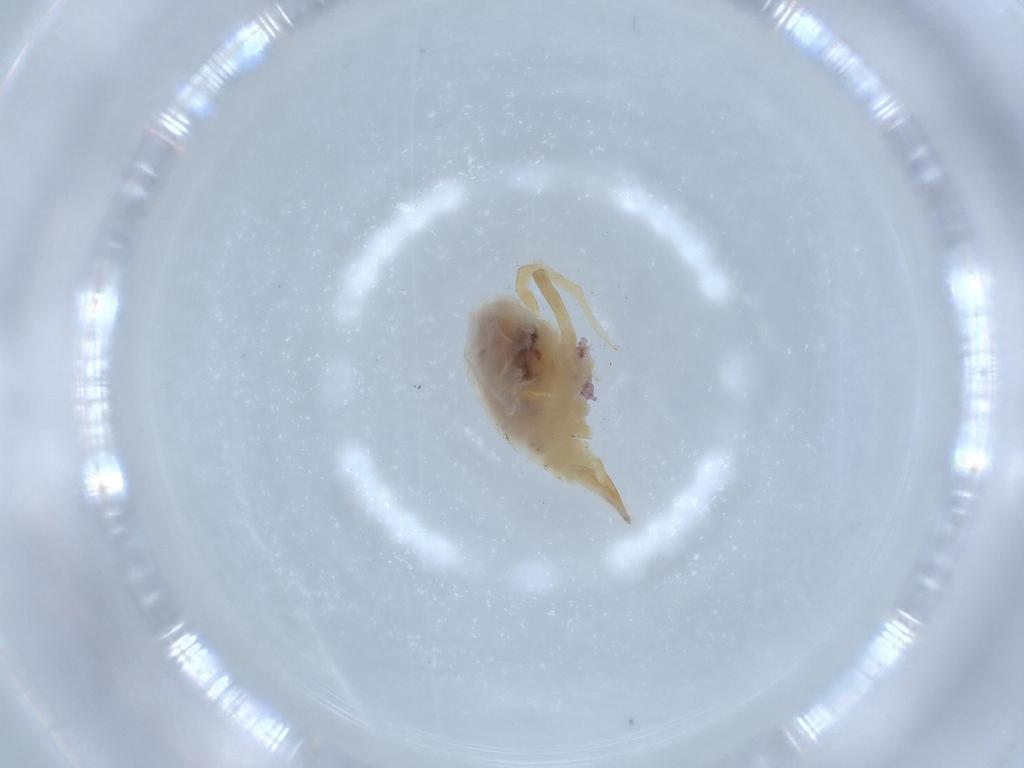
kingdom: Animalia
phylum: Arthropoda
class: Arachnida
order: Trombidiformes
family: Bdellidae
